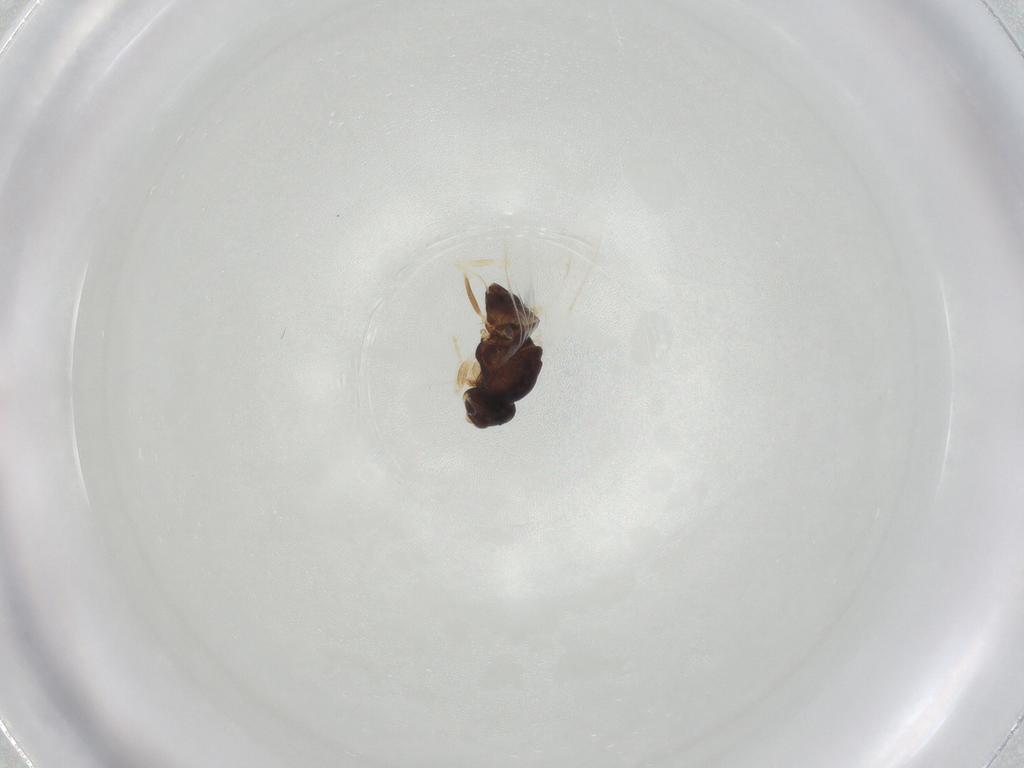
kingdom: Animalia
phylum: Arthropoda
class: Insecta
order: Diptera
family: Chloropidae
